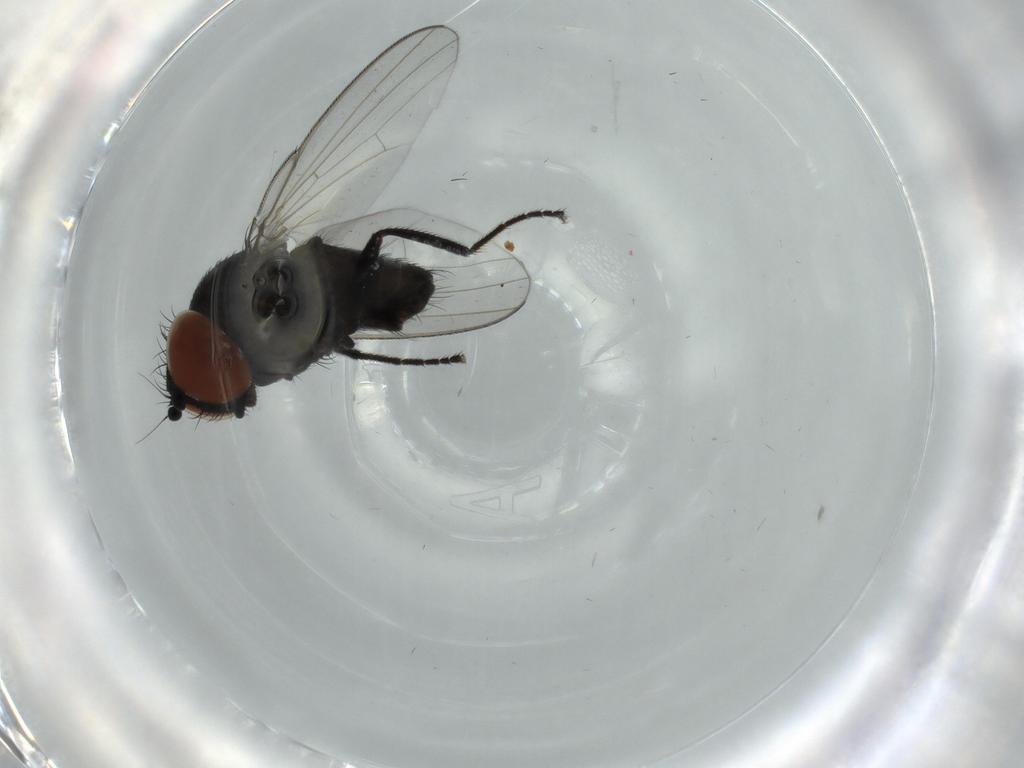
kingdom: Animalia
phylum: Arthropoda
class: Insecta
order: Diptera
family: Milichiidae
